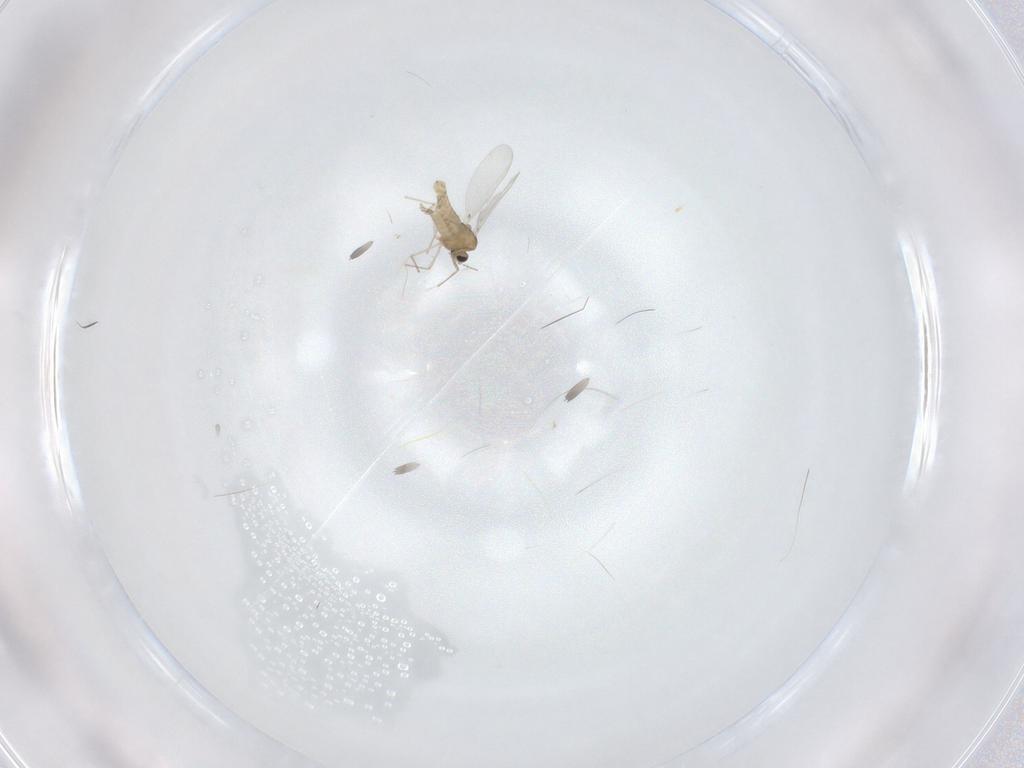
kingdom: Animalia
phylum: Arthropoda
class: Insecta
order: Diptera
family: Chironomidae
